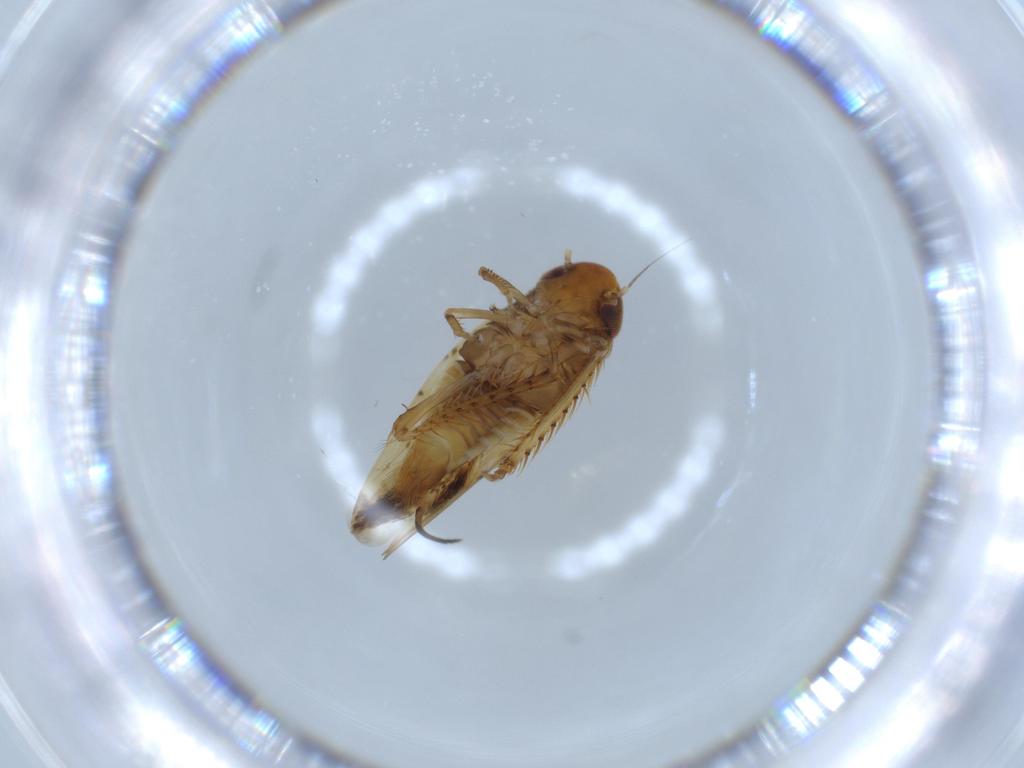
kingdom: Animalia
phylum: Arthropoda
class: Insecta
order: Hemiptera
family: Cicadellidae
